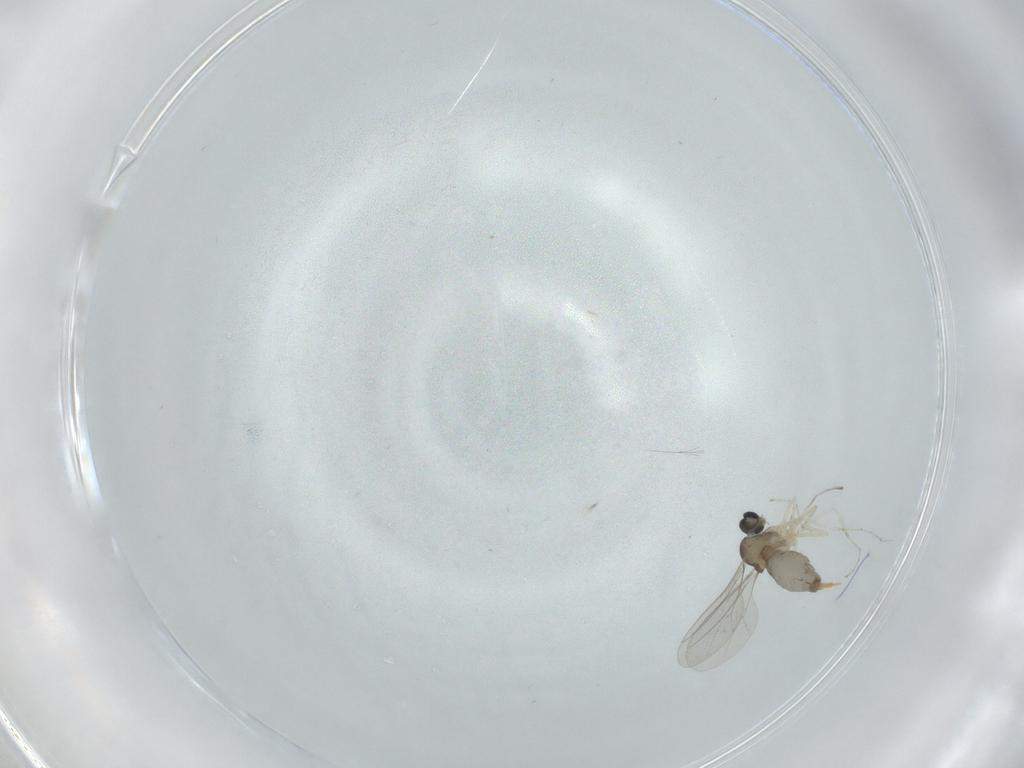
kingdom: Animalia
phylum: Arthropoda
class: Insecta
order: Diptera
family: Cecidomyiidae
